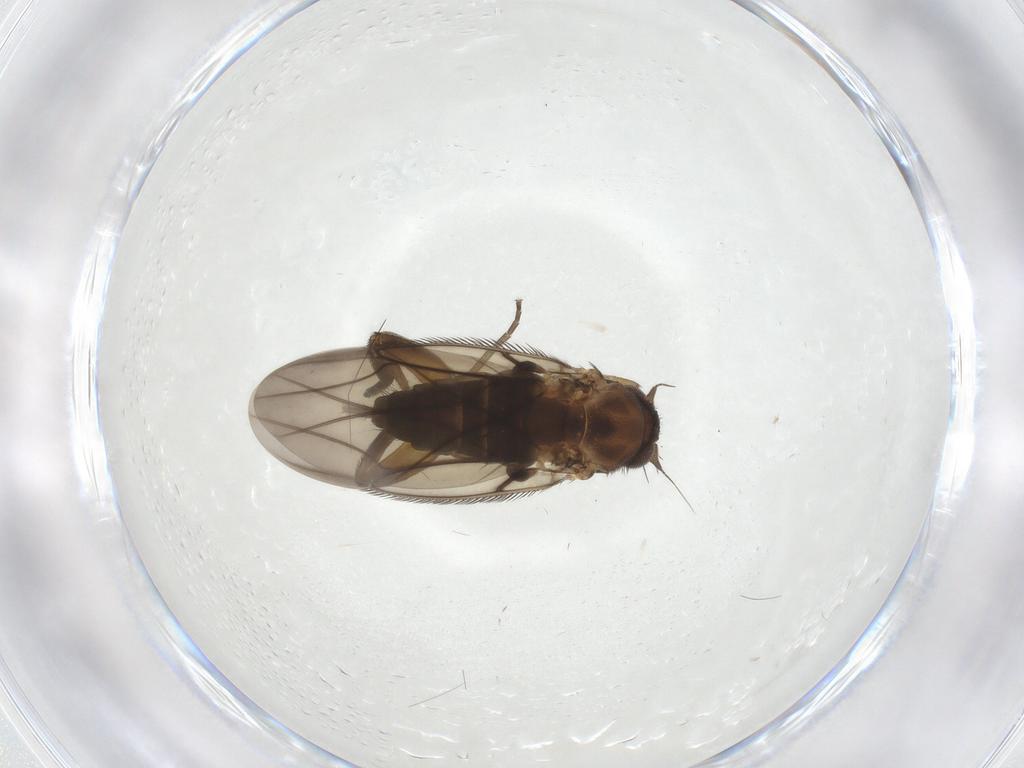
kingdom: Animalia
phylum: Arthropoda
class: Insecta
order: Diptera
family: Phoridae
